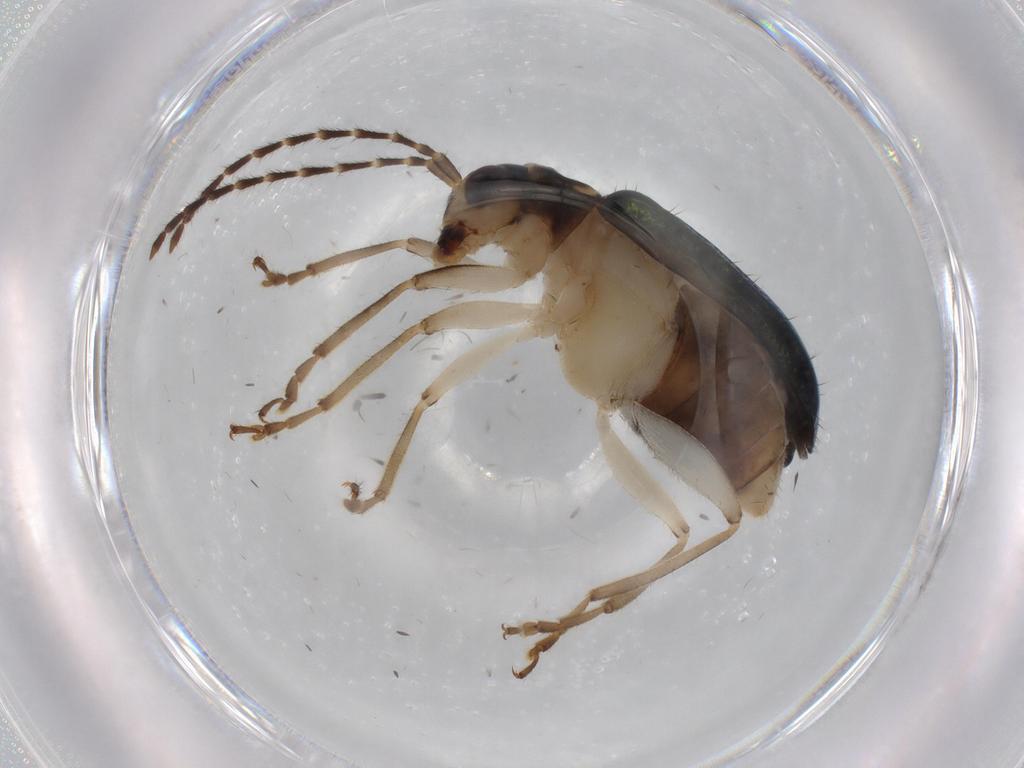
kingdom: Animalia
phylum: Arthropoda
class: Insecta
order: Coleoptera
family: Chrysomelidae
